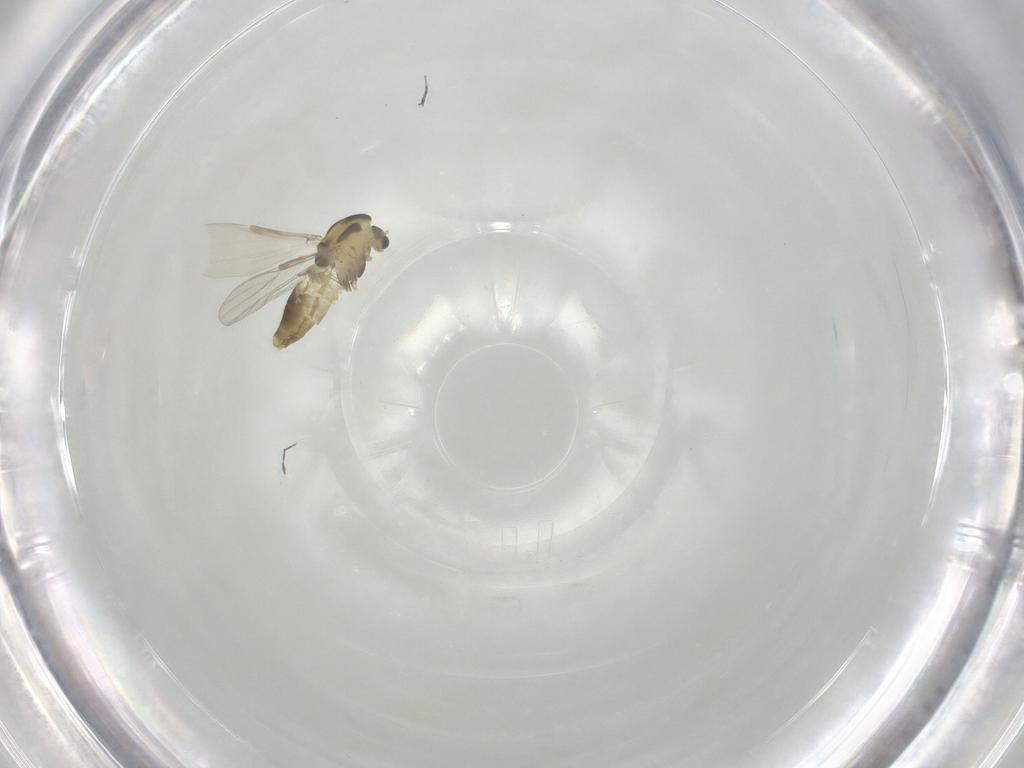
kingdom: Animalia
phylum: Arthropoda
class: Insecta
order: Diptera
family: Chironomidae
